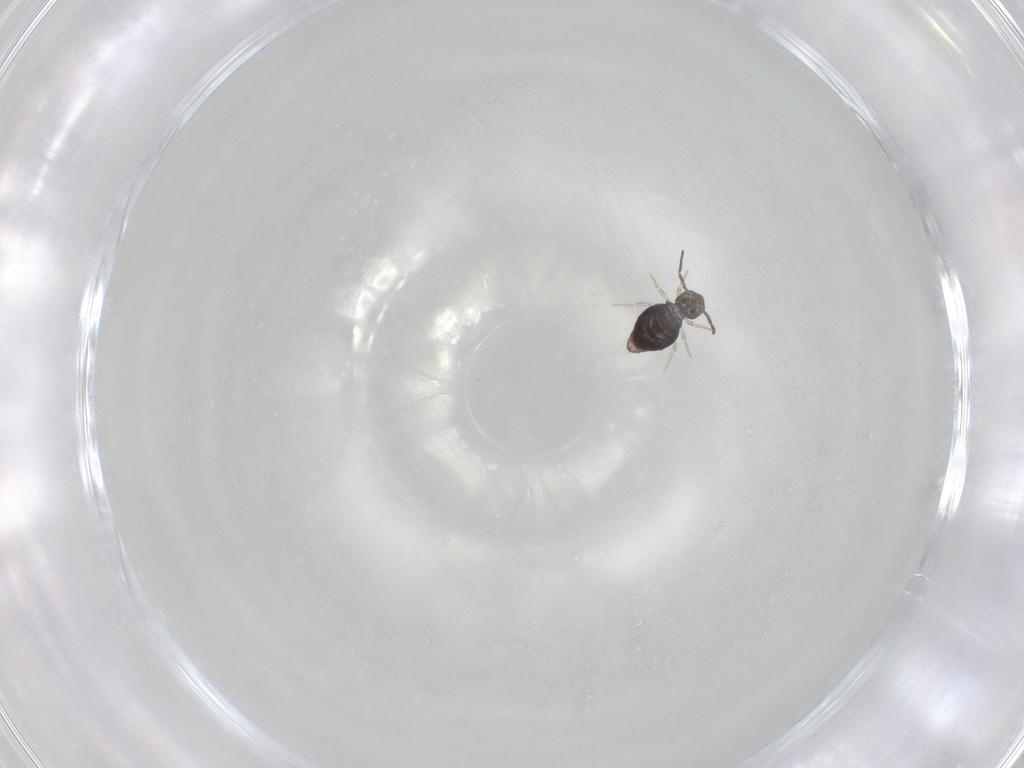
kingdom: Animalia
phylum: Arthropoda
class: Collembola
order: Symphypleona
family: Katiannidae
